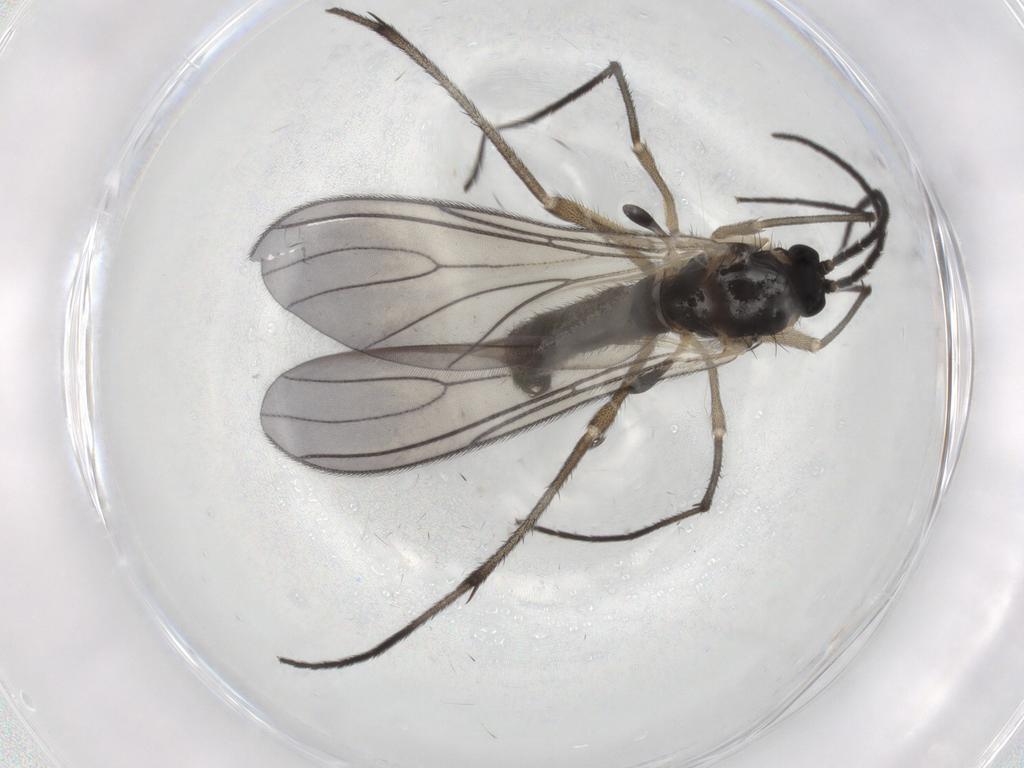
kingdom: Animalia
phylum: Arthropoda
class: Insecta
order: Diptera
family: Sciaridae
